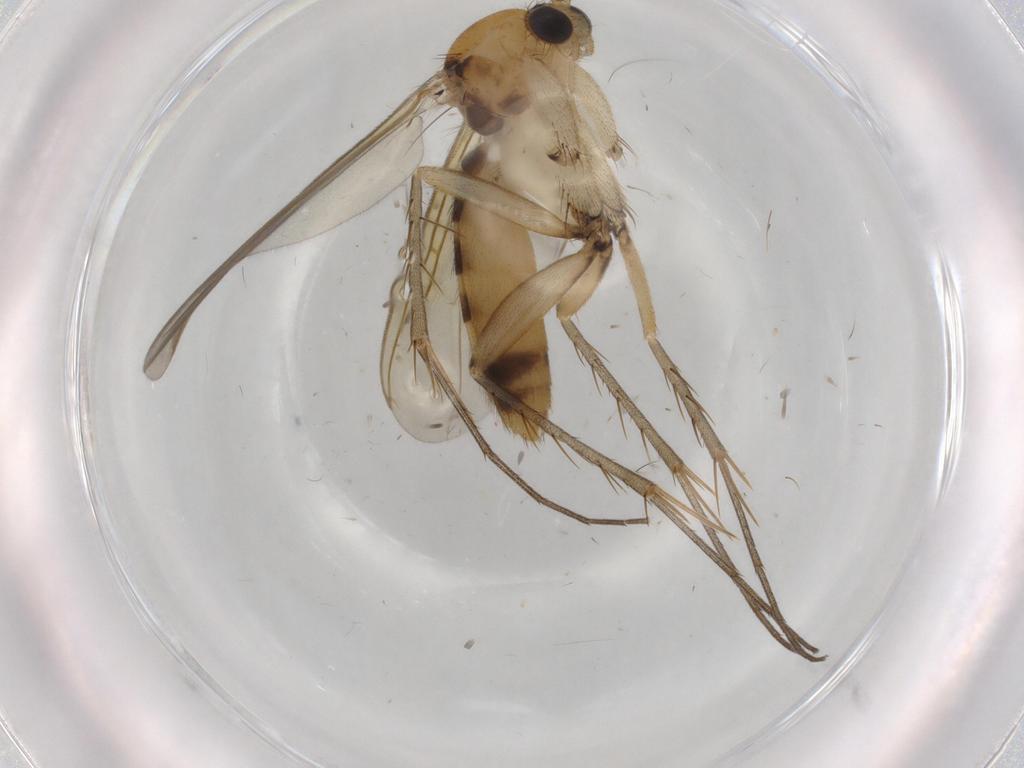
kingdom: Animalia
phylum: Arthropoda
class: Insecta
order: Diptera
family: Mycetophilidae
